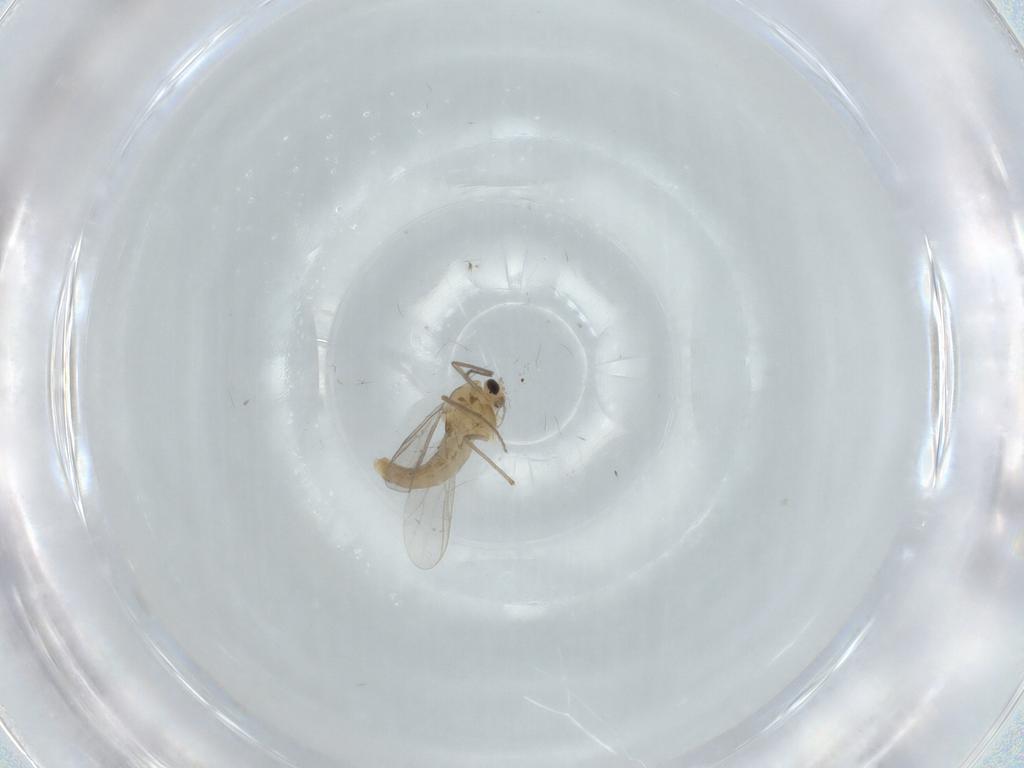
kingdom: Animalia
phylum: Arthropoda
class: Insecta
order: Diptera
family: Chironomidae
